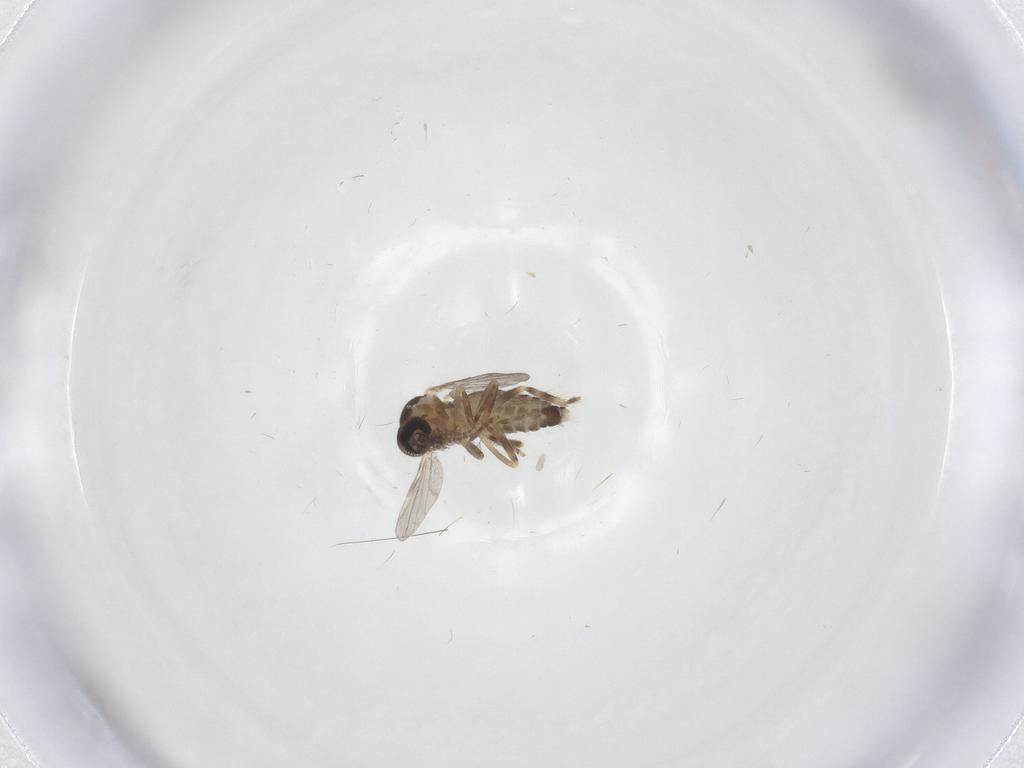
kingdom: Animalia
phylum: Arthropoda
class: Insecta
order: Diptera
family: Ceratopogonidae
